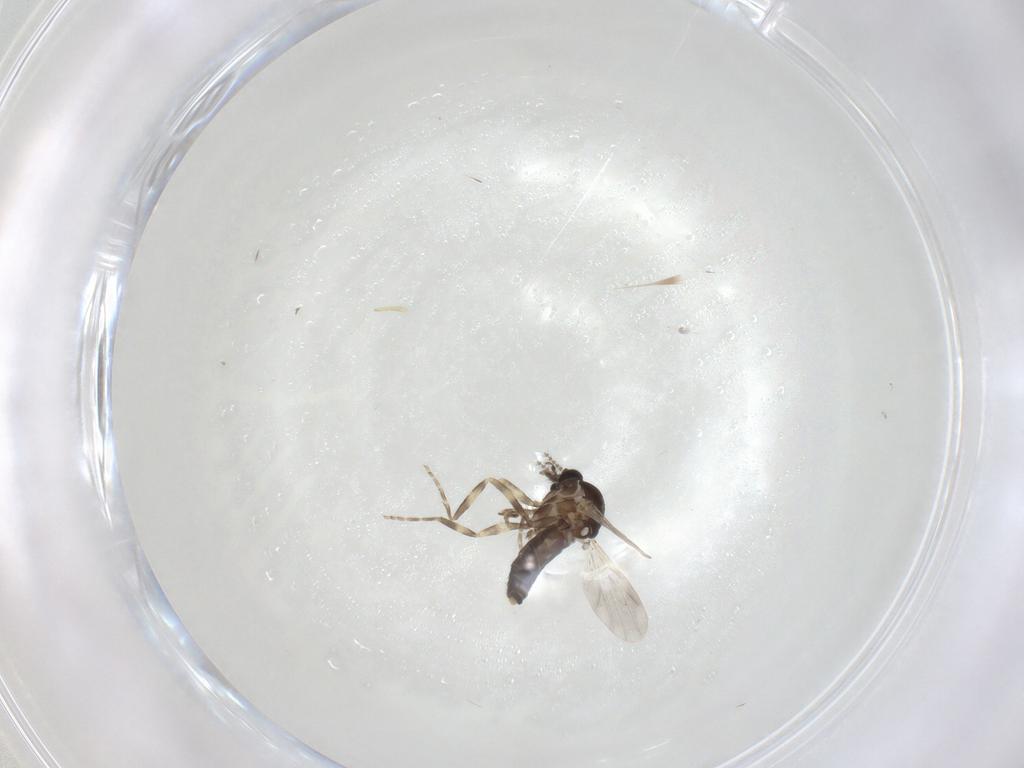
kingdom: Animalia
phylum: Arthropoda
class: Insecta
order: Diptera
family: Ceratopogonidae
